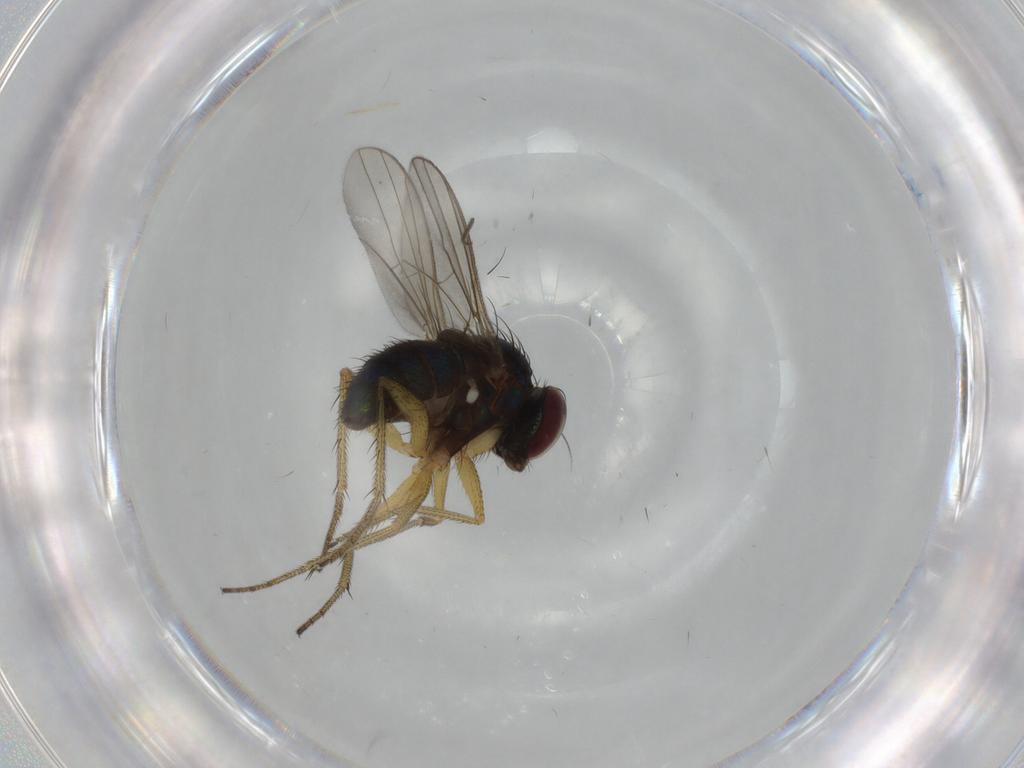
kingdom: Animalia
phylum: Arthropoda
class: Insecta
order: Diptera
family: Dolichopodidae
